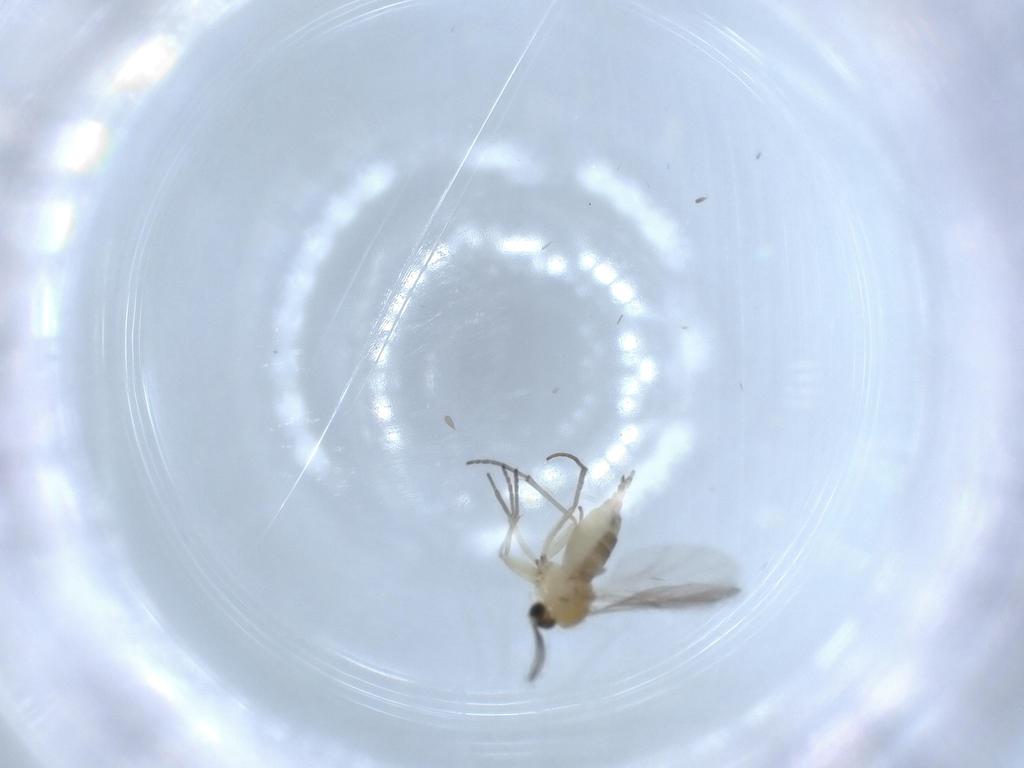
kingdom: Animalia
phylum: Arthropoda
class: Insecta
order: Diptera
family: Sciaridae
